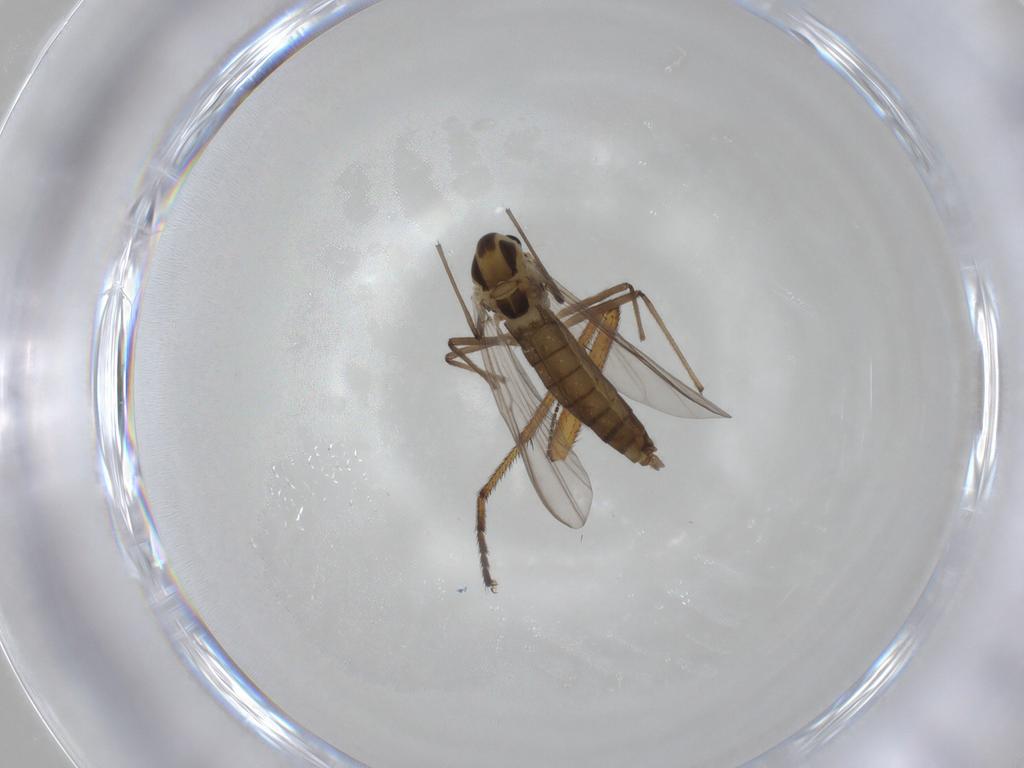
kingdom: Animalia
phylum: Arthropoda
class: Insecta
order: Diptera
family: Chironomidae
